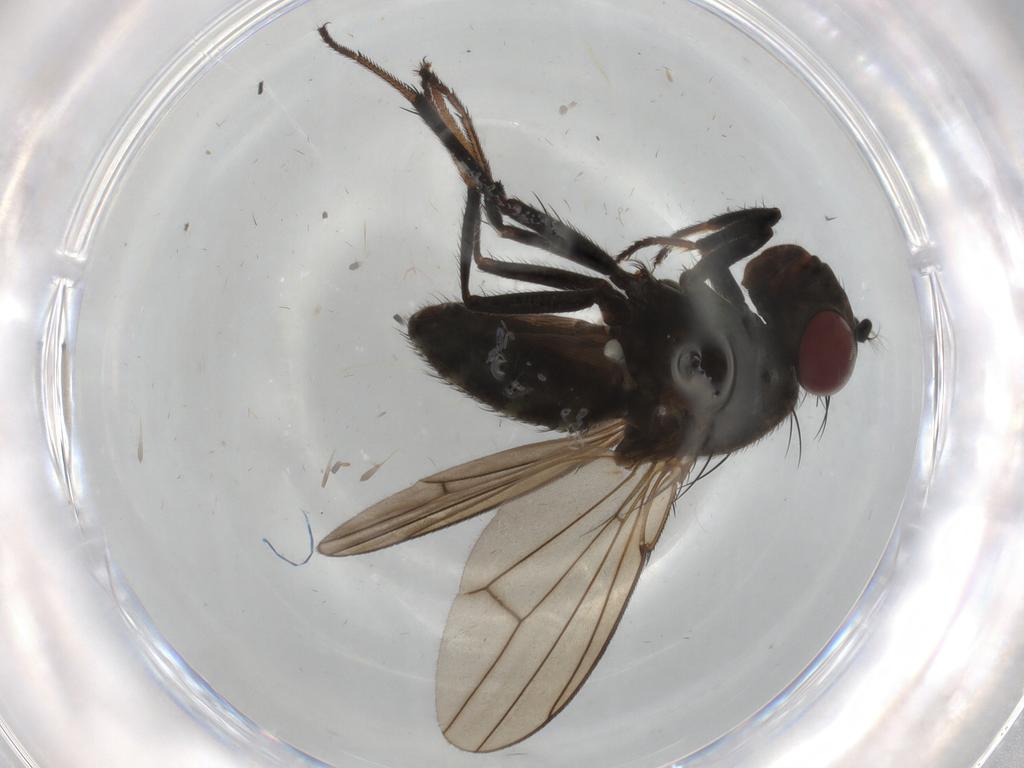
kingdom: Animalia
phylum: Arthropoda
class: Insecta
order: Diptera
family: Ephydridae
